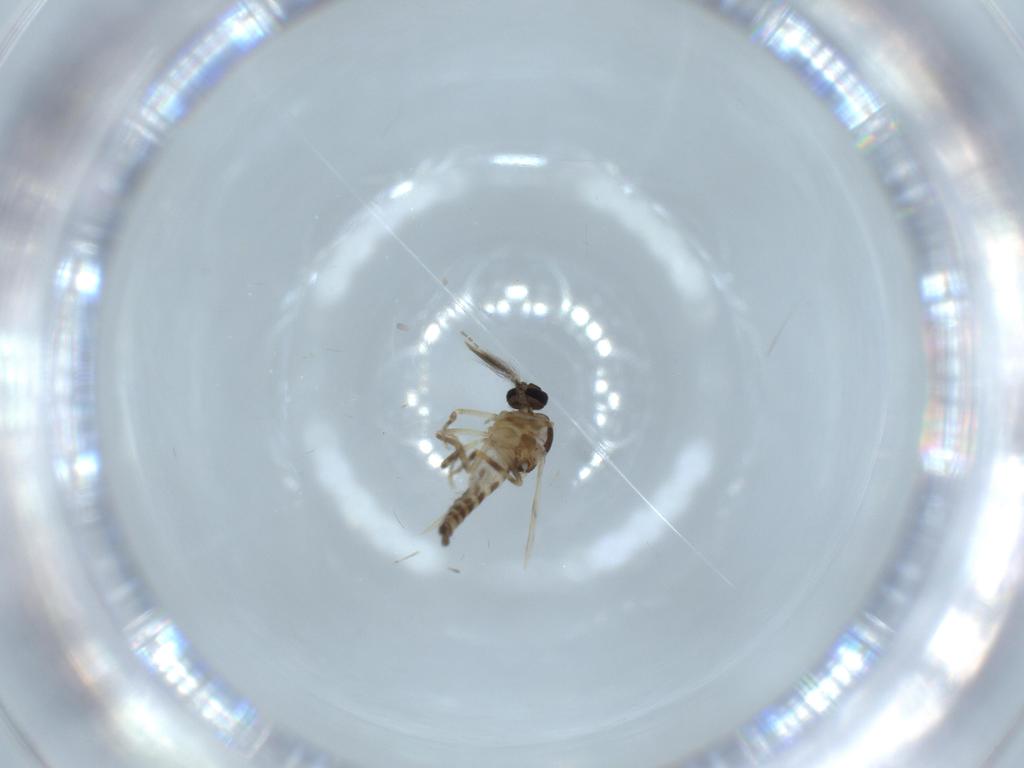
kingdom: Animalia
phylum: Arthropoda
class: Insecta
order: Diptera
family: Ceratopogonidae
